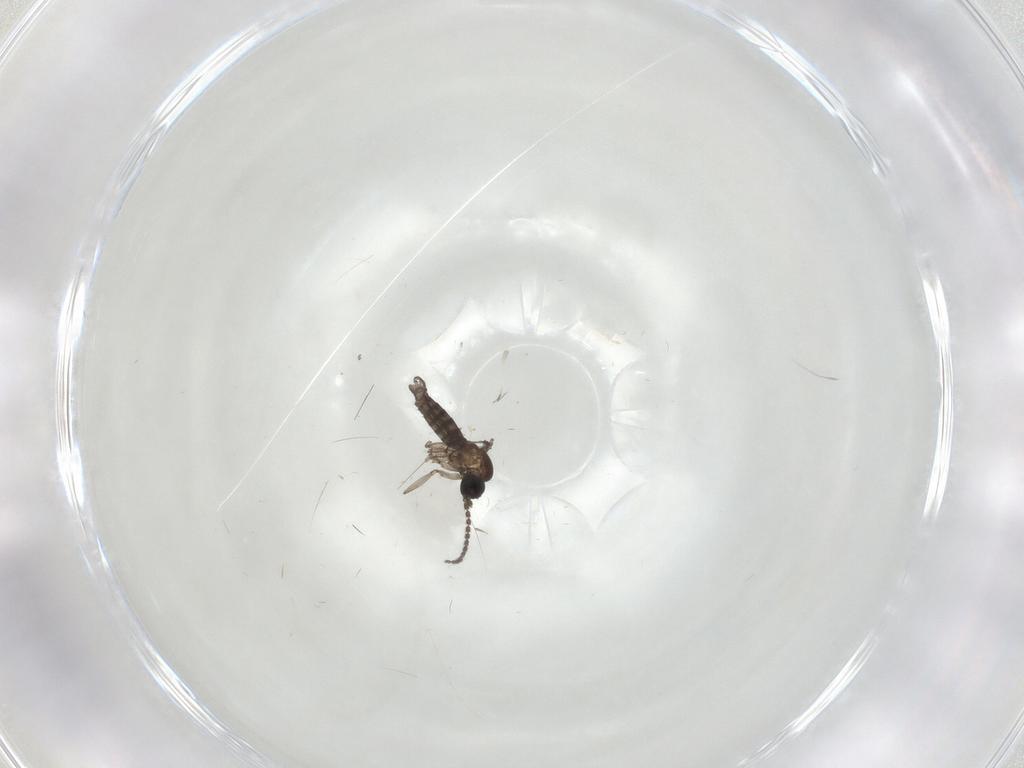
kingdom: Animalia
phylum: Arthropoda
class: Insecta
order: Diptera
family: Sciaridae
